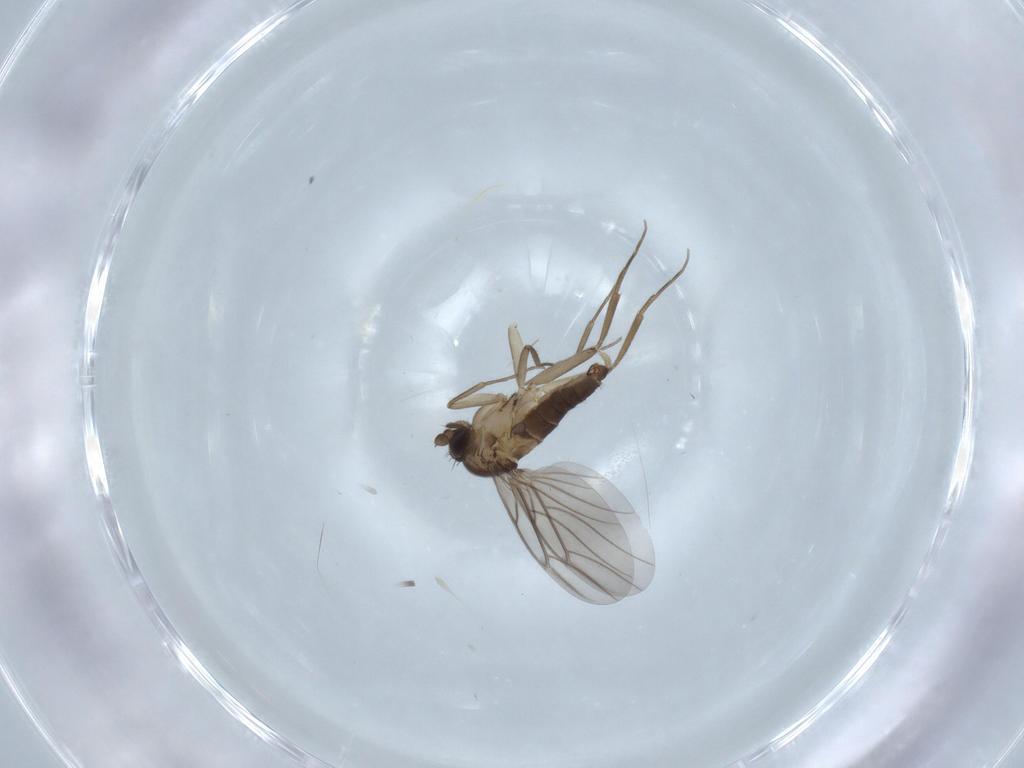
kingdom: Animalia
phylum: Arthropoda
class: Insecta
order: Diptera
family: Phoridae
